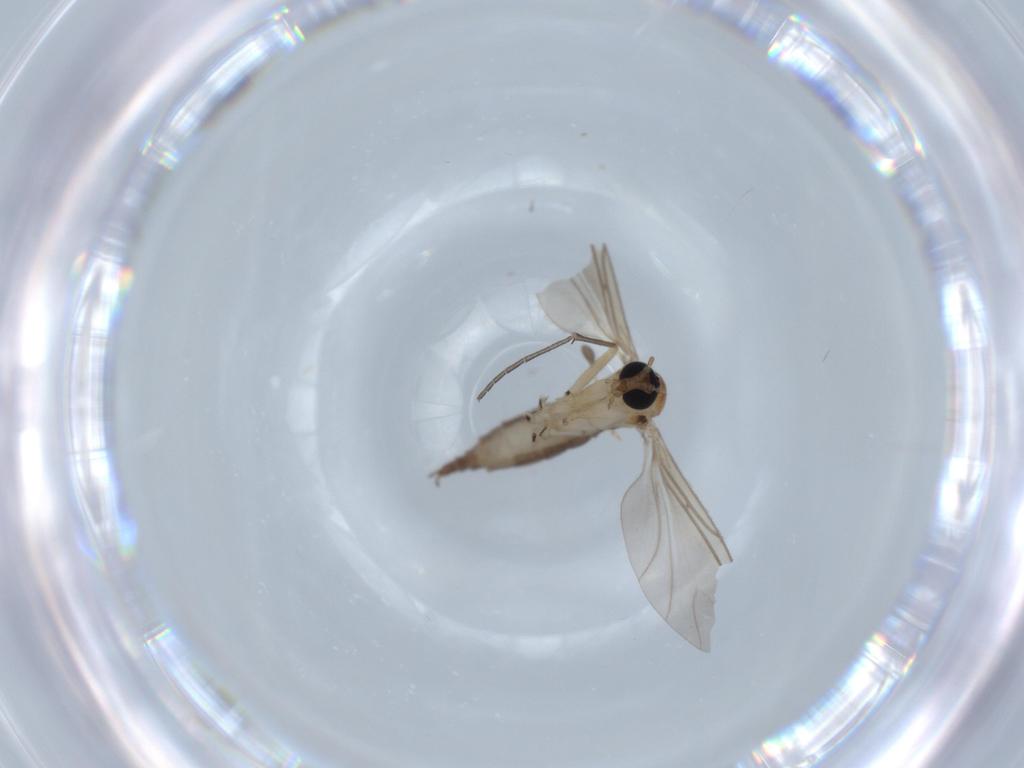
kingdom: Animalia
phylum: Arthropoda
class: Insecta
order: Diptera
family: Sciaridae
